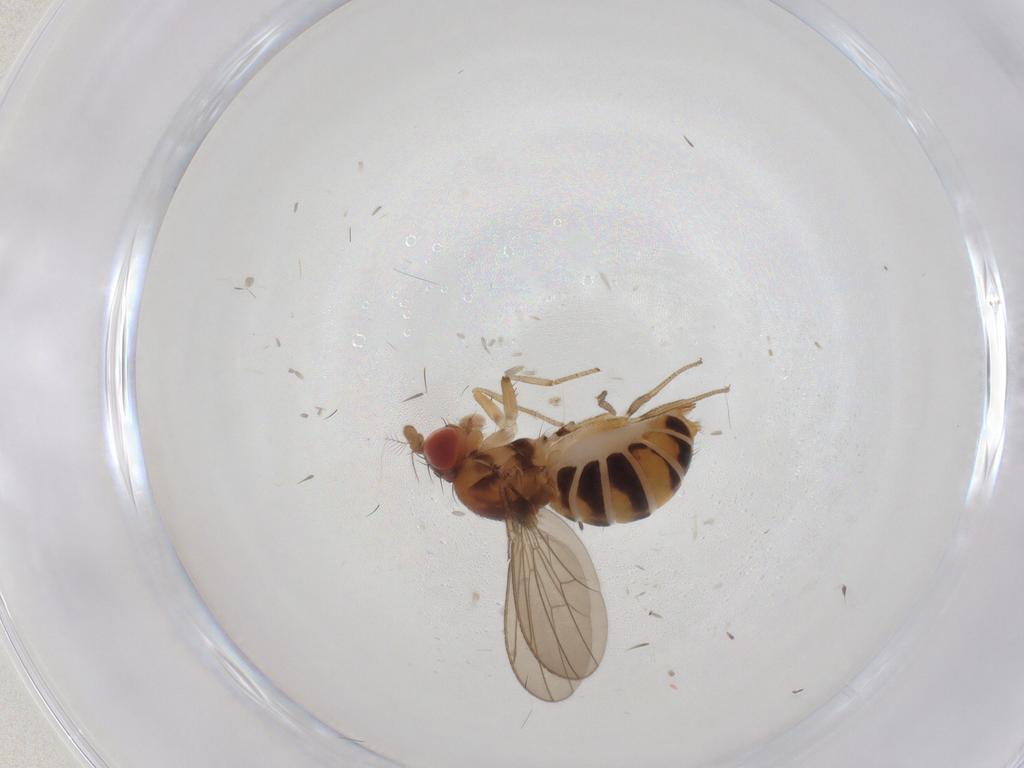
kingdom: Animalia
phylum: Arthropoda
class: Insecta
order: Diptera
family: Drosophilidae
